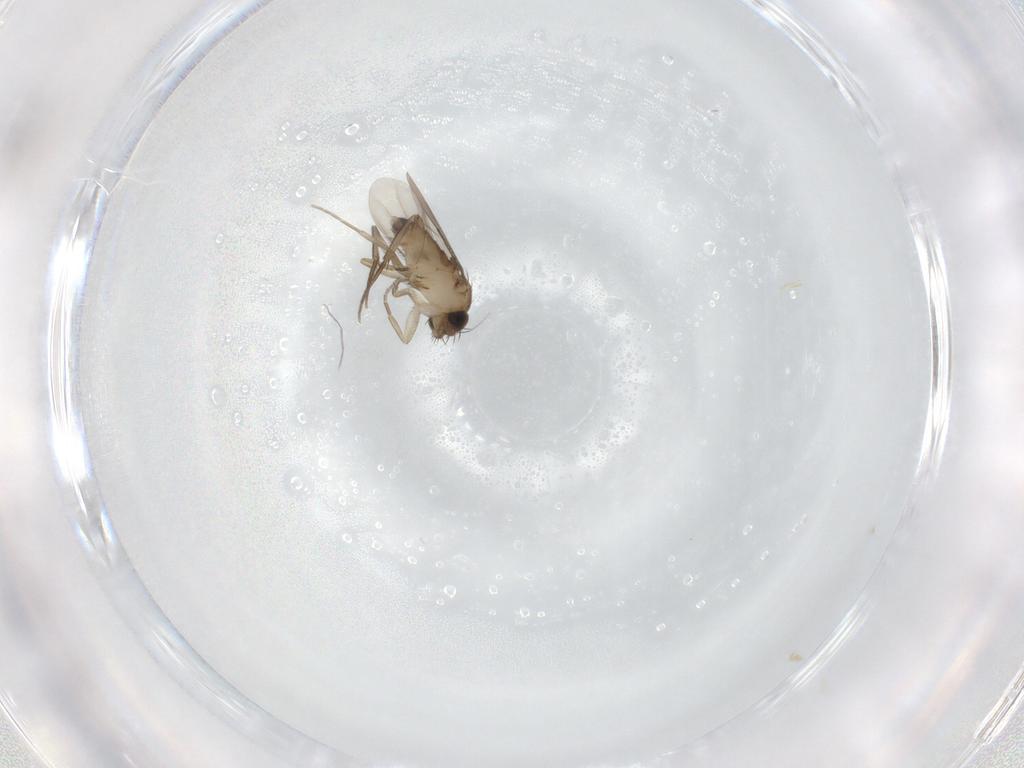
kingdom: Animalia
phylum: Arthropoda
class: Insecta
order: Diptera
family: Phoridae
